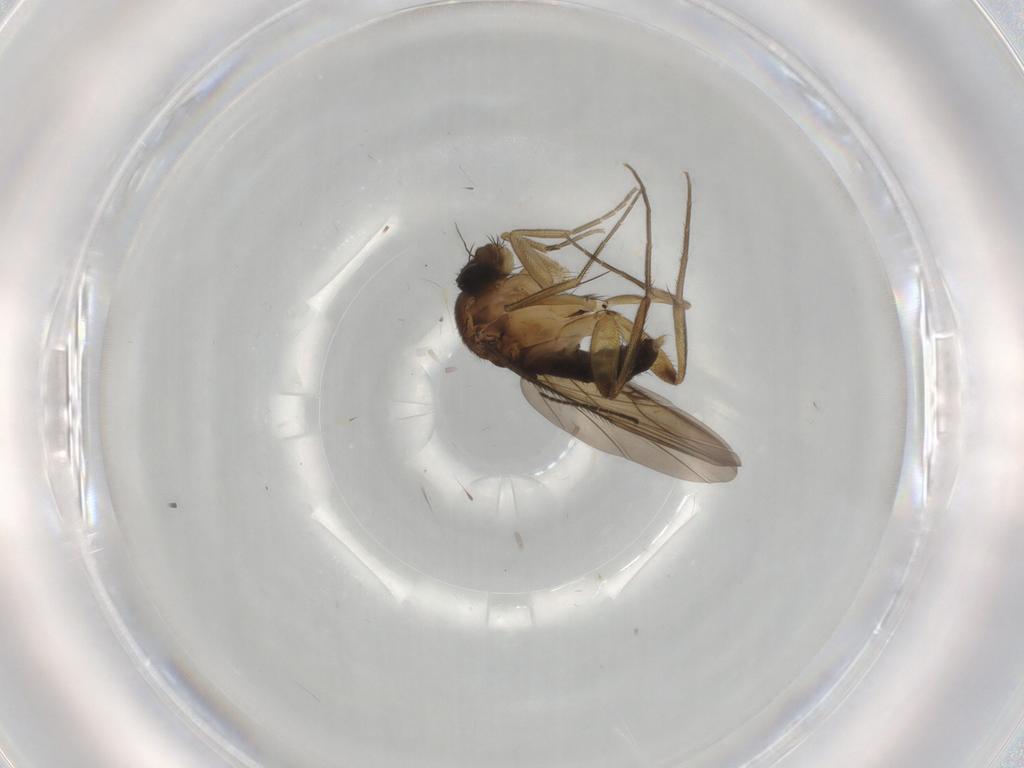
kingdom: Animalia
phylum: Arthropoda
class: Insecta
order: Diptera
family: Phoridae
